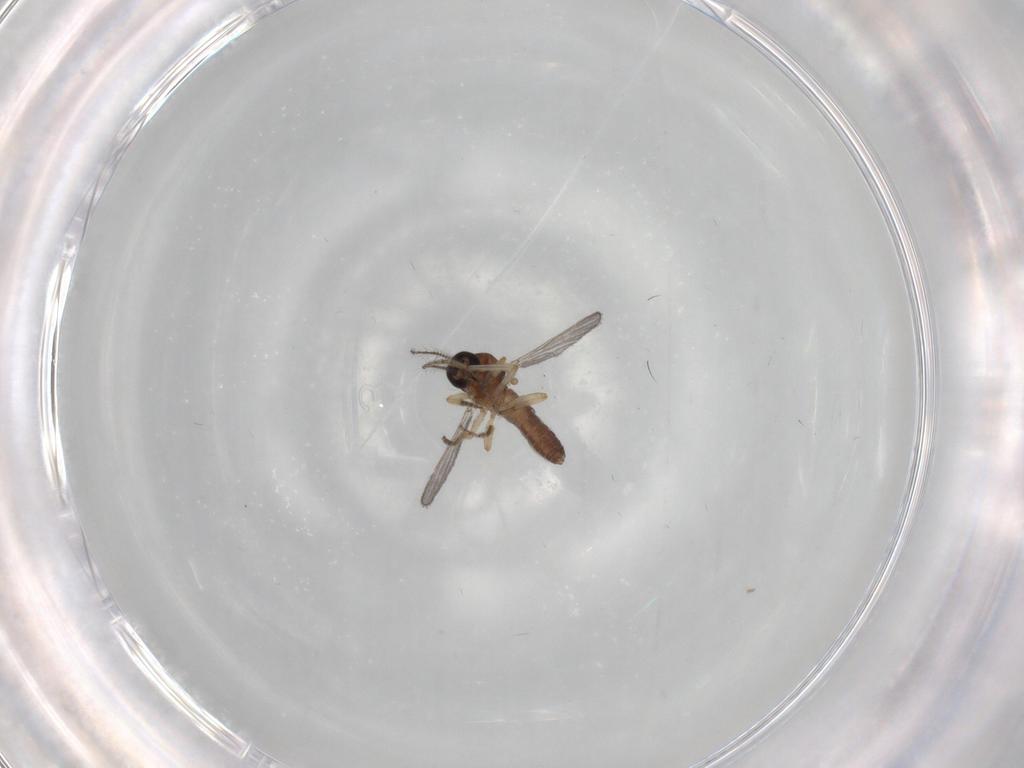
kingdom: Animalia
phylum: Arthropoda
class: Insecta
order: Diptera
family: Ceratopogonidae
